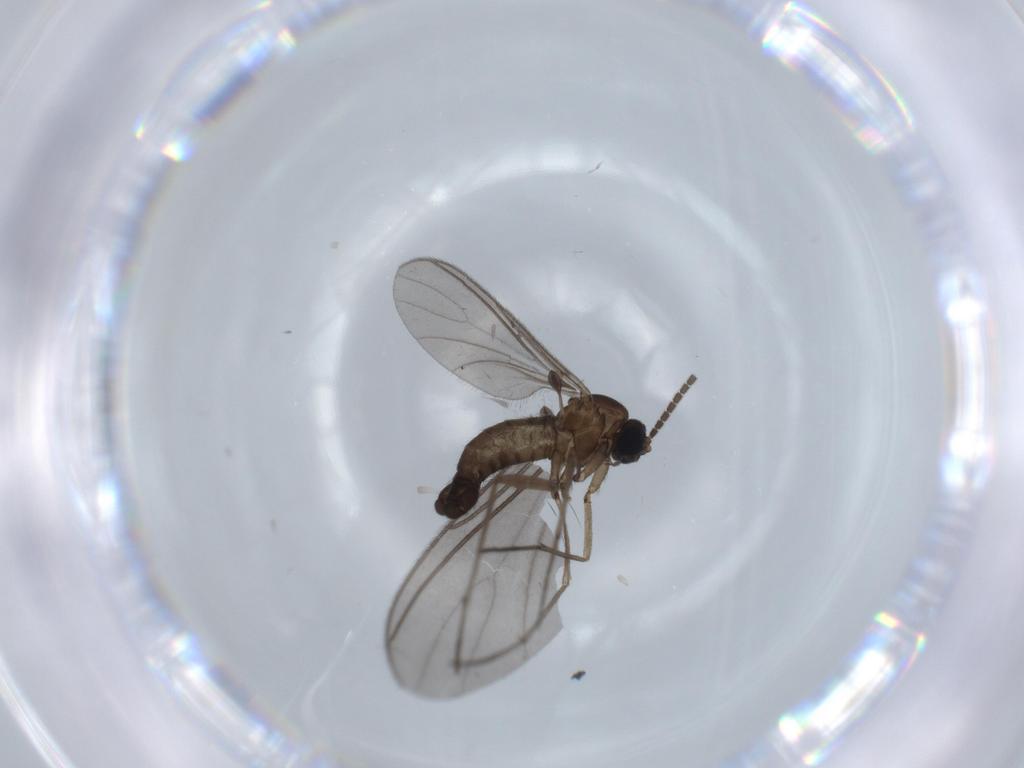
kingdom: Animalia
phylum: Arthropoda
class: Insecta
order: Diptera
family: Sciaridae
